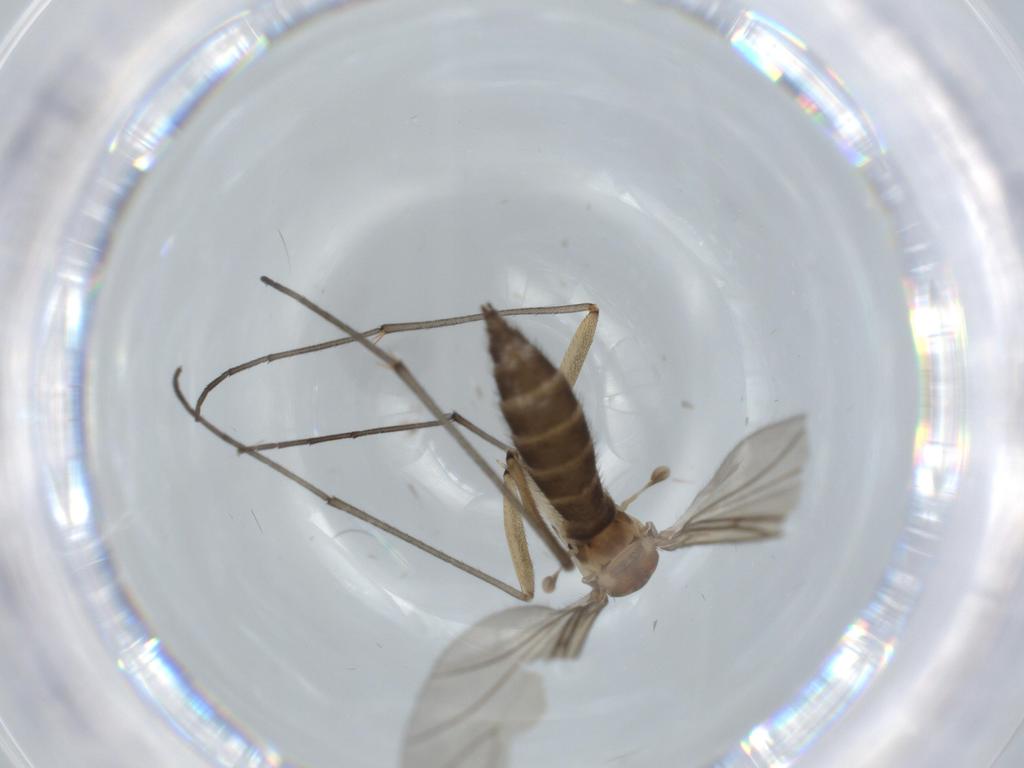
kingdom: Animalia
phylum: Arthropoda
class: Insecta
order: Diptera
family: Sciaridae
